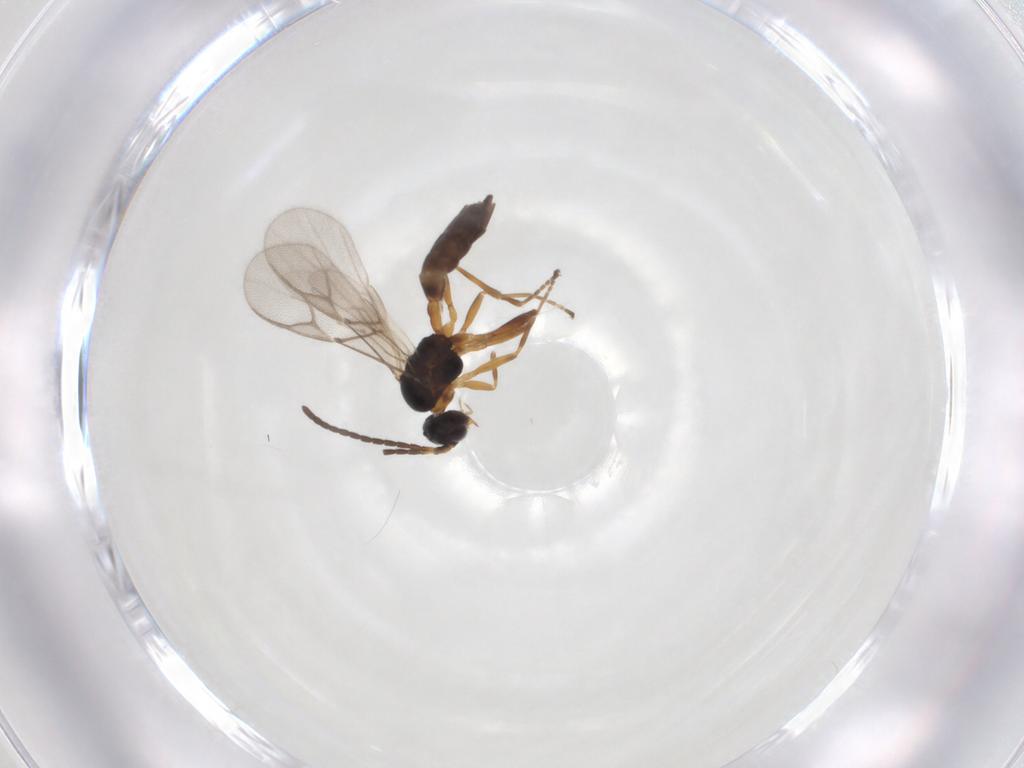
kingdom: Animalia
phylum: Arthropoda
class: Insecta
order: Hymenoptera
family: Braconidae
